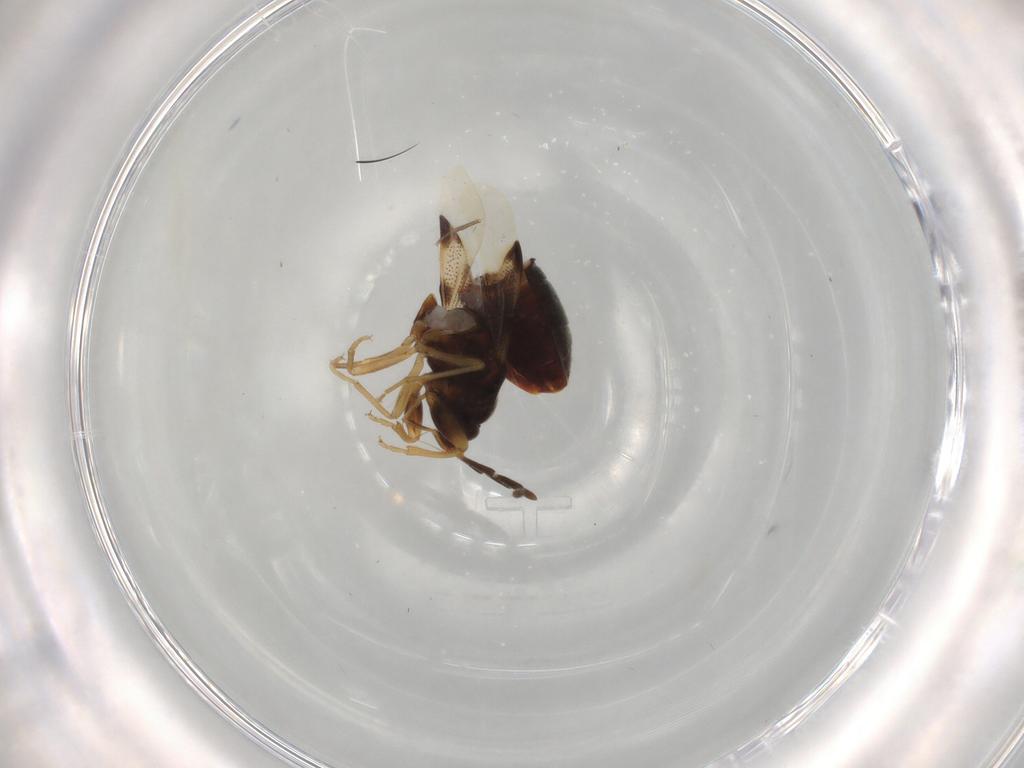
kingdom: Animalia
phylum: Arthropoda
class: Insecta
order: Hemiptera
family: Rhyparochromidae
